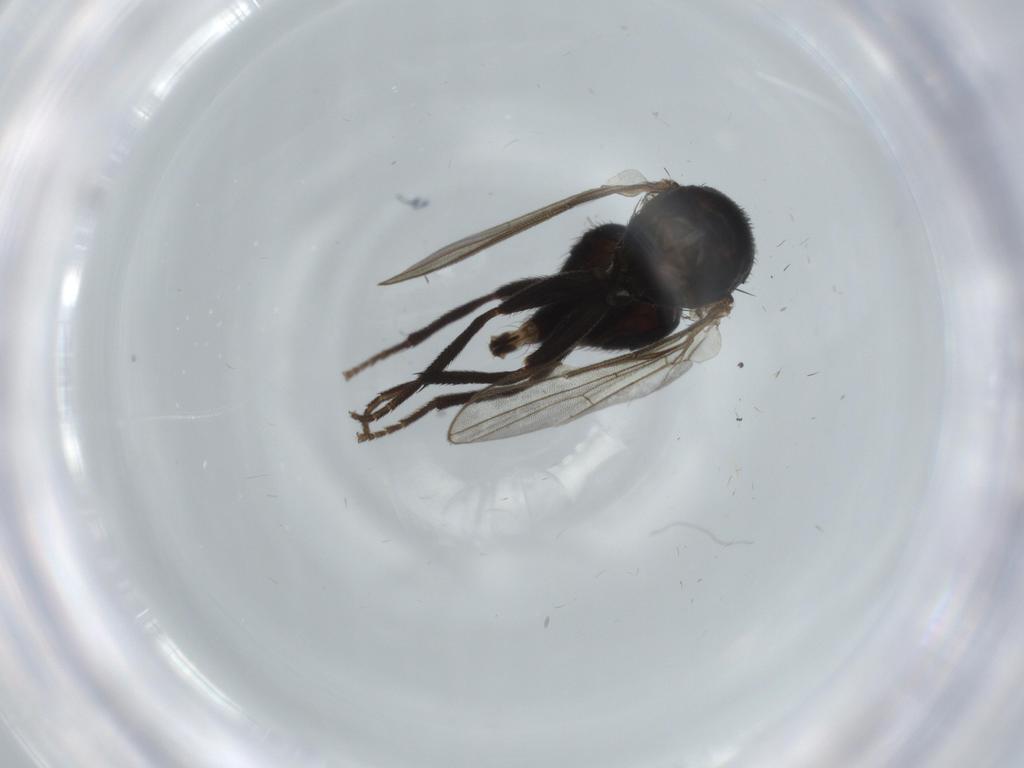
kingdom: Animalia
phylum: Arthropoda
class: Insecta
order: Diptera
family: Agromyzidae
